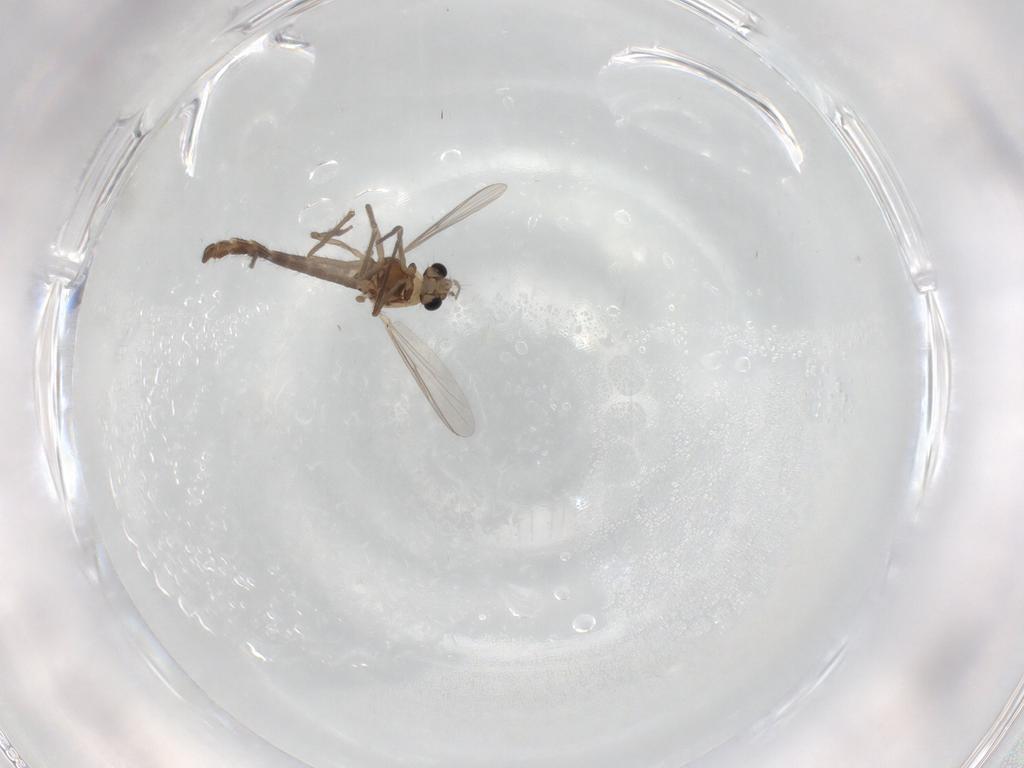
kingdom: Animalia
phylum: Arthropoda
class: Insecta
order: Diptera
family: Chironomidae
